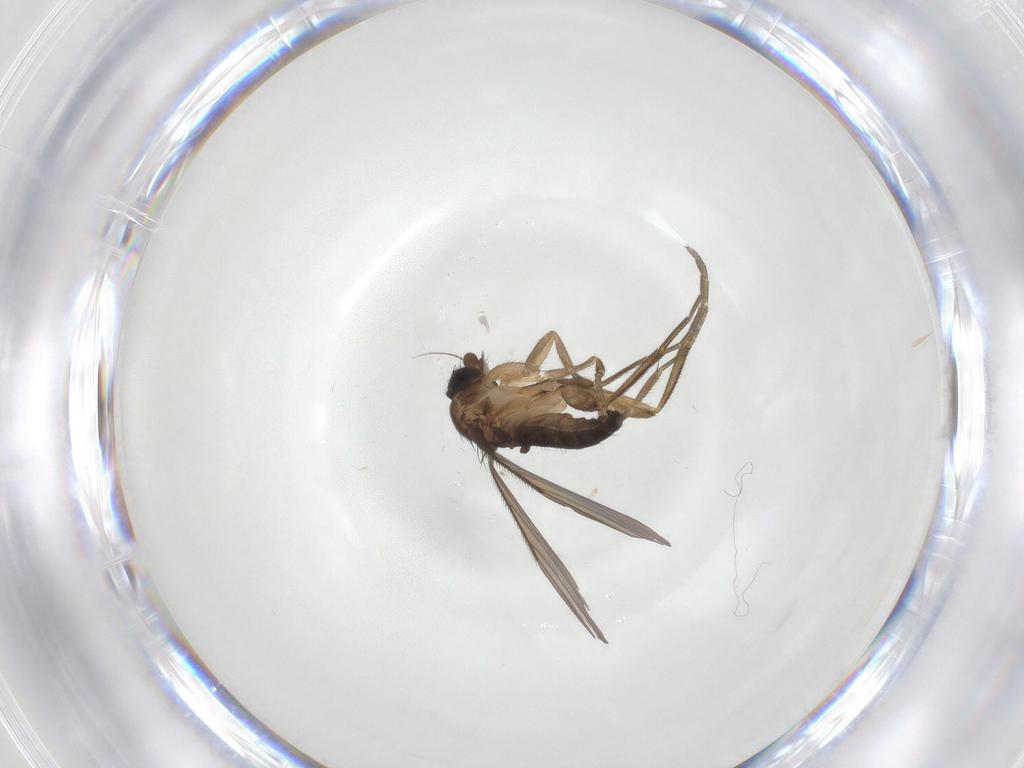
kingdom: Animalia
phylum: Arthropoda
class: Insecta
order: Diptera
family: Phoridae
